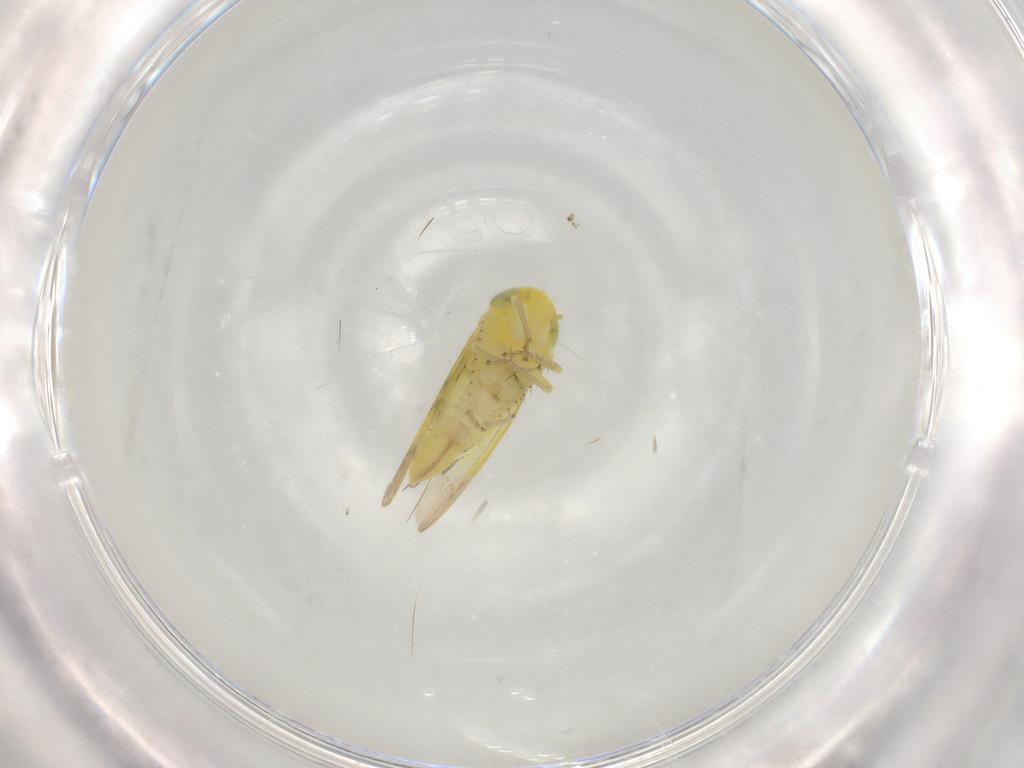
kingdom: Animalia
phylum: Arthropoda
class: Insecta
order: Hemiptera
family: Cicadellidae
